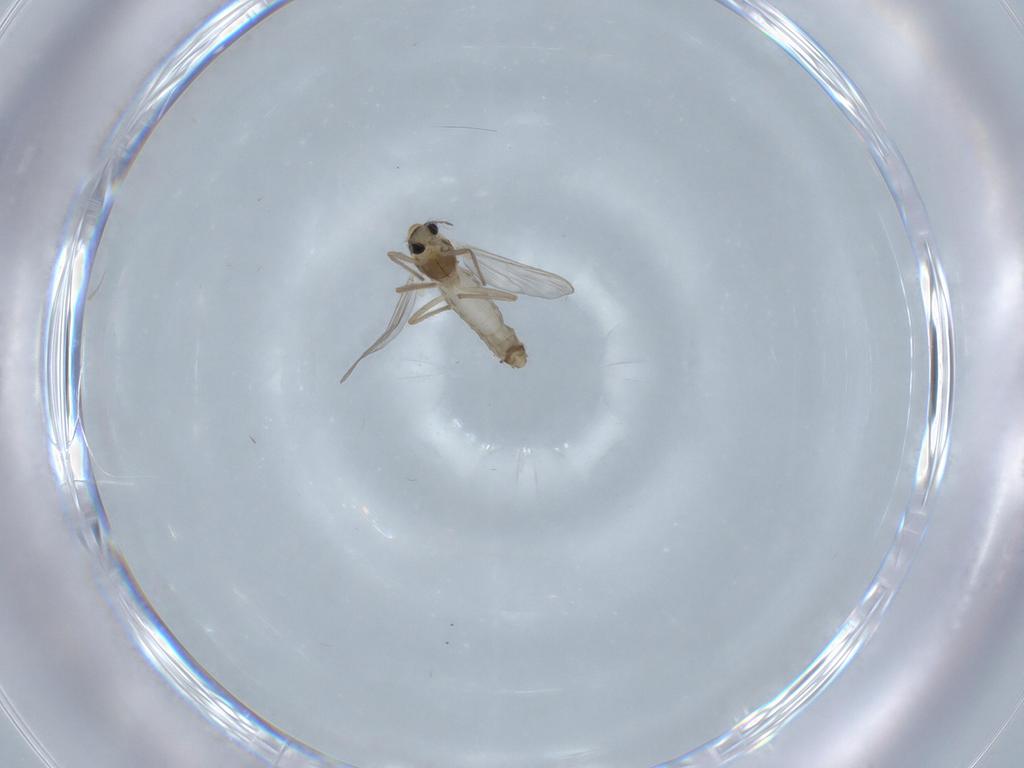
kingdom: Animalia
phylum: Arthropoda
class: Insecta
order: Diptera
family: Chironomidae
